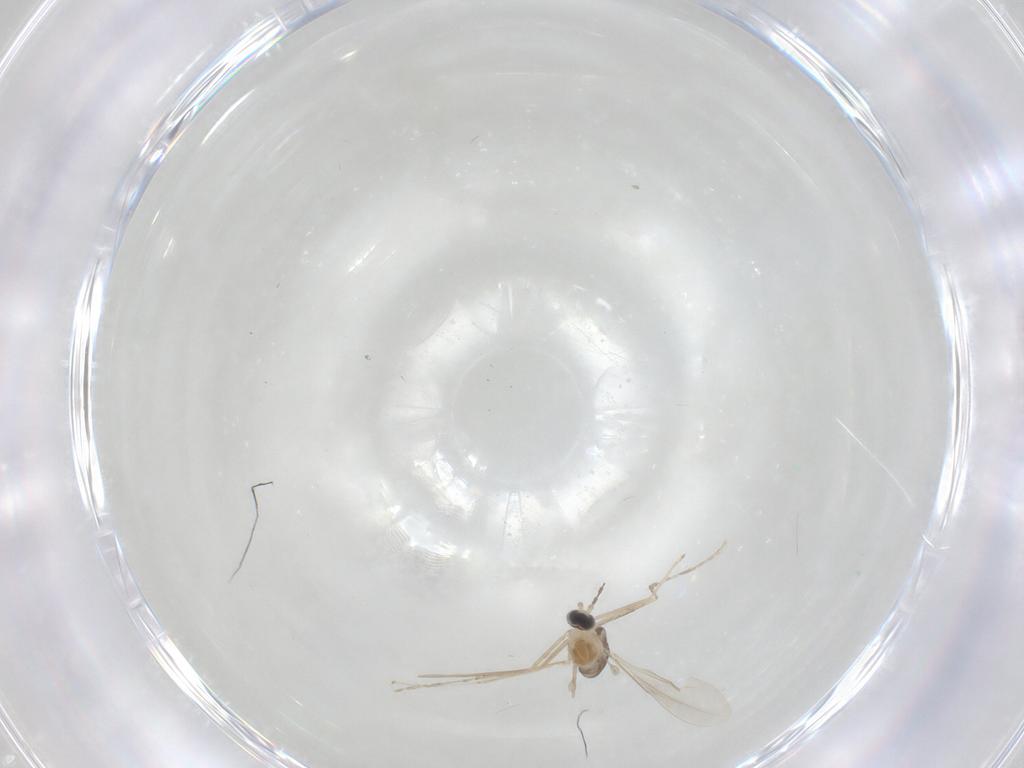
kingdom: Animalia
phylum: Arthropoda
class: Insecta
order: Diptera
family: Cecidomyiidae
